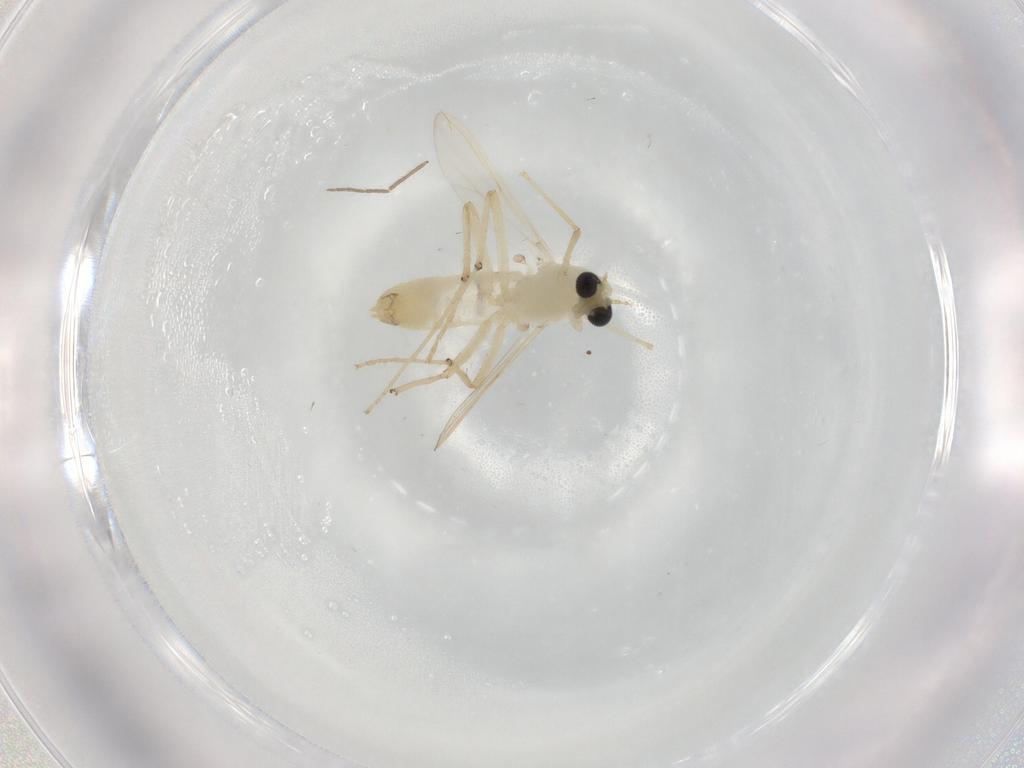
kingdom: Animalia
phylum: Arthropoda
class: Insecta
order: Diptera
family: Chironomidae
